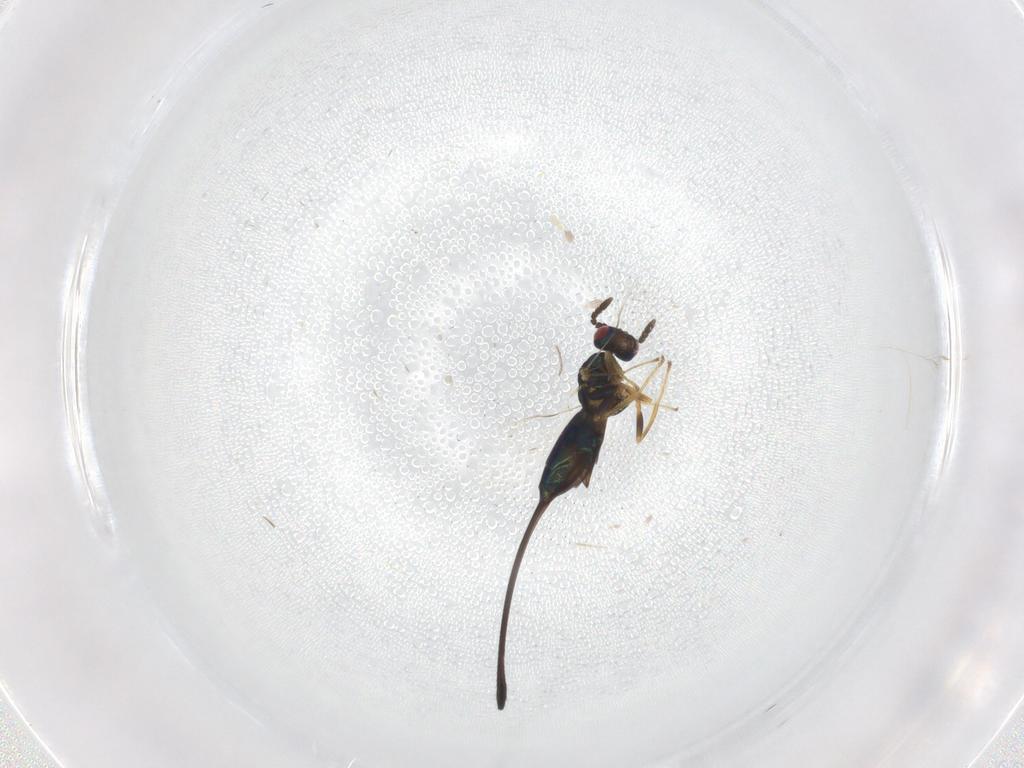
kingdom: Animalia
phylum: Arthropoda
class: Insecta
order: Hymenoptera
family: Pteromalidae
